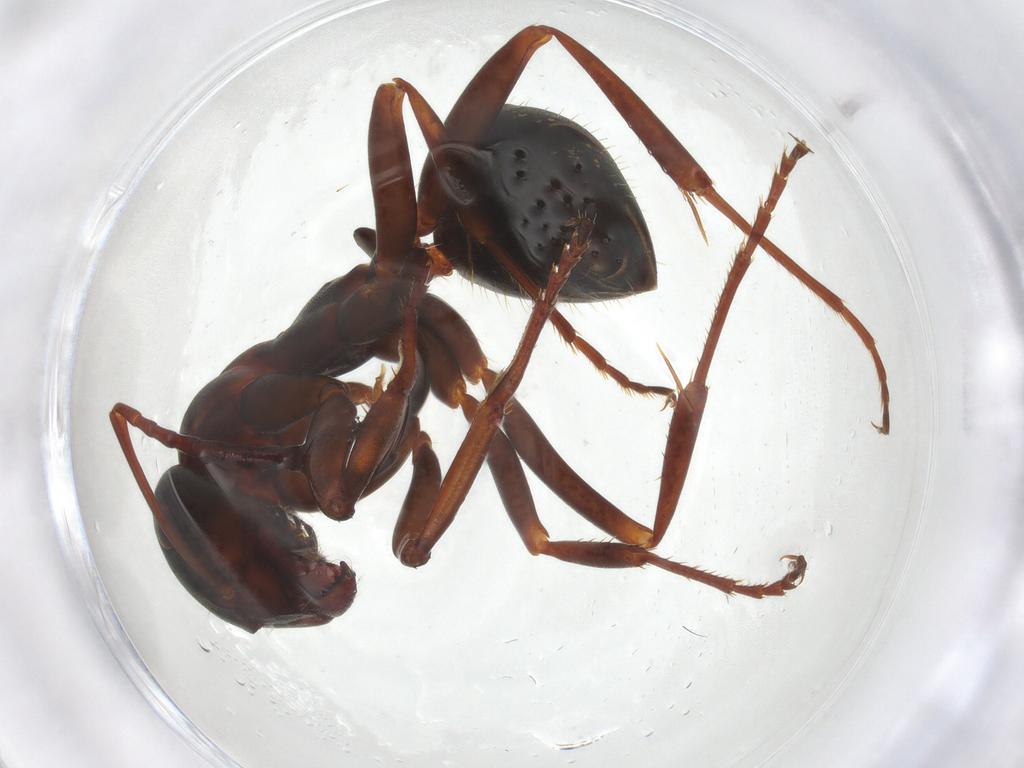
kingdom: Animalia
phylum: Arthropoda
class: Insecta
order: Hymenoptera
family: Formicidae
